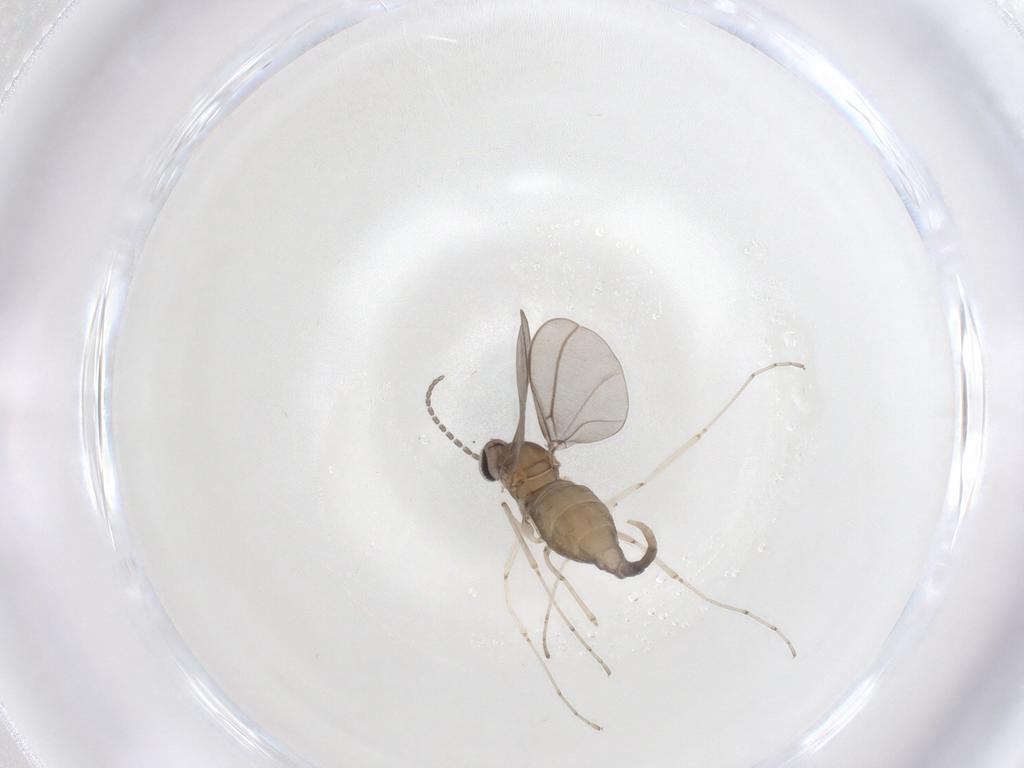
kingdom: Animalia
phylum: Arthropoda
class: Insecta
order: Diptera
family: Cecidomyiidae
